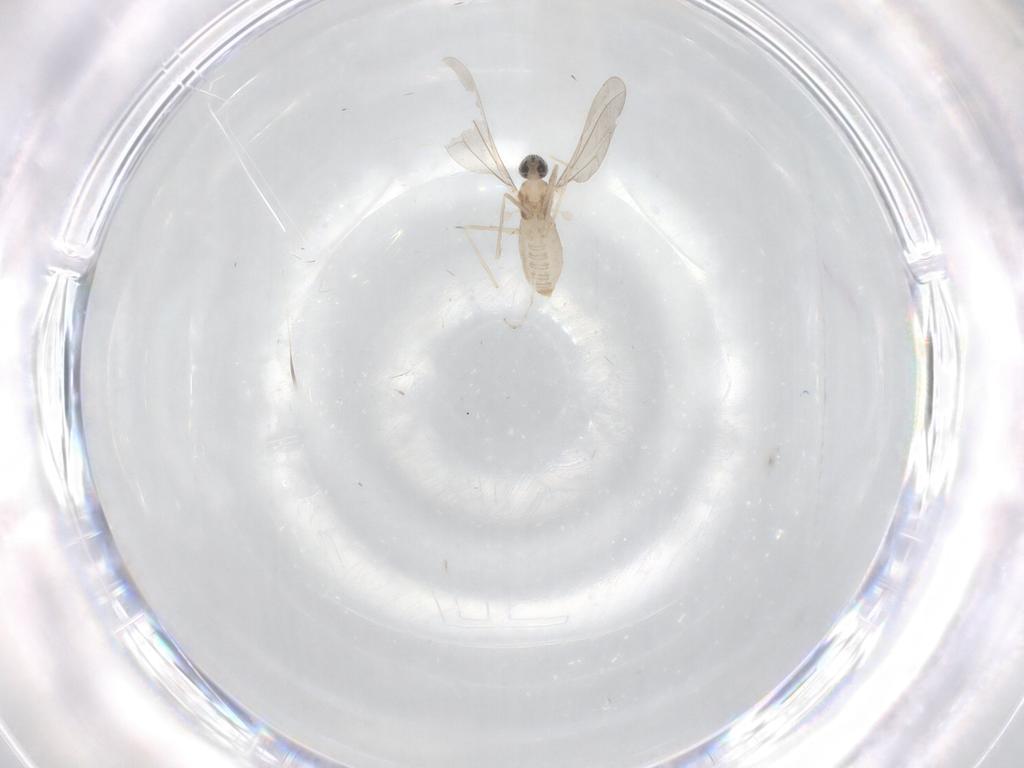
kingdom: Animalia
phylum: Arthropoda
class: Insecta
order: Diptera
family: Cecidomyiidae
